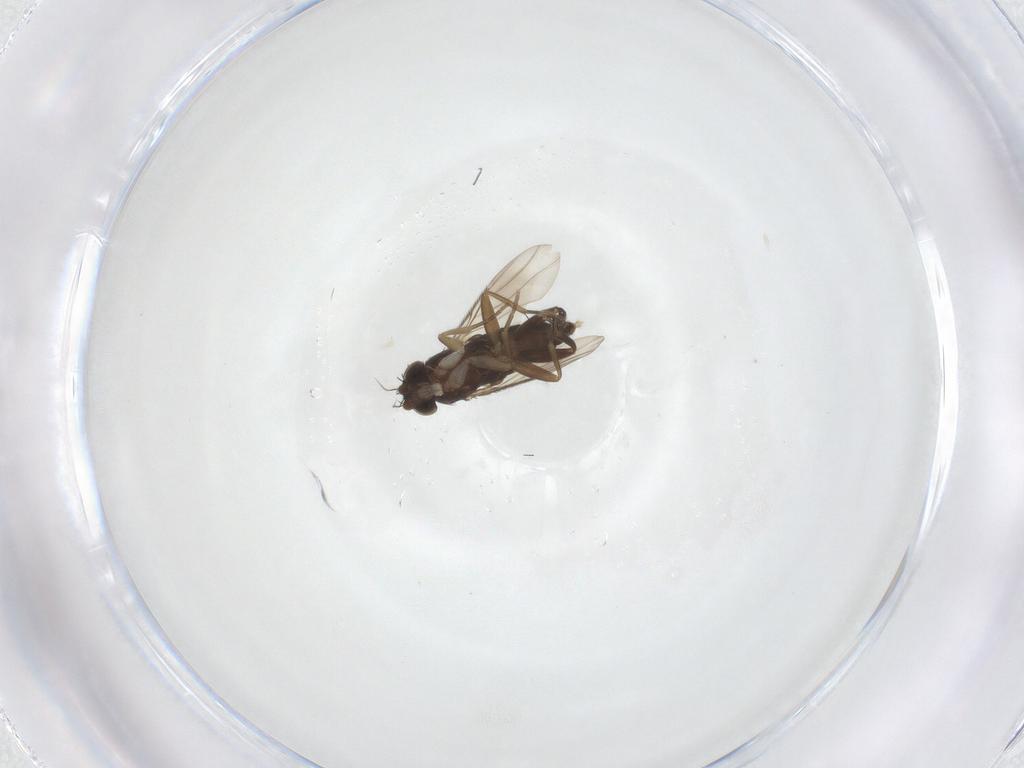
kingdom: Animalia
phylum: Arthropoda
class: Insecta
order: Diptera
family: Phoridae
